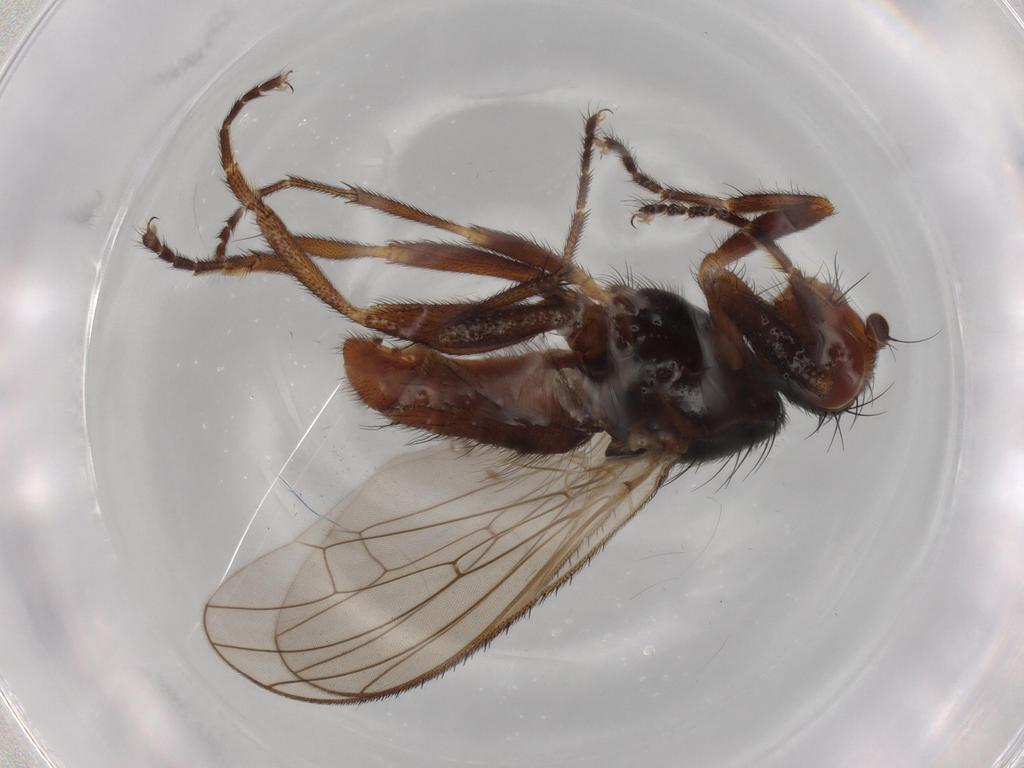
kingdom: Animalia
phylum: Arthropoda
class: Insecta
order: Diptera
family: Heleomyzidae
